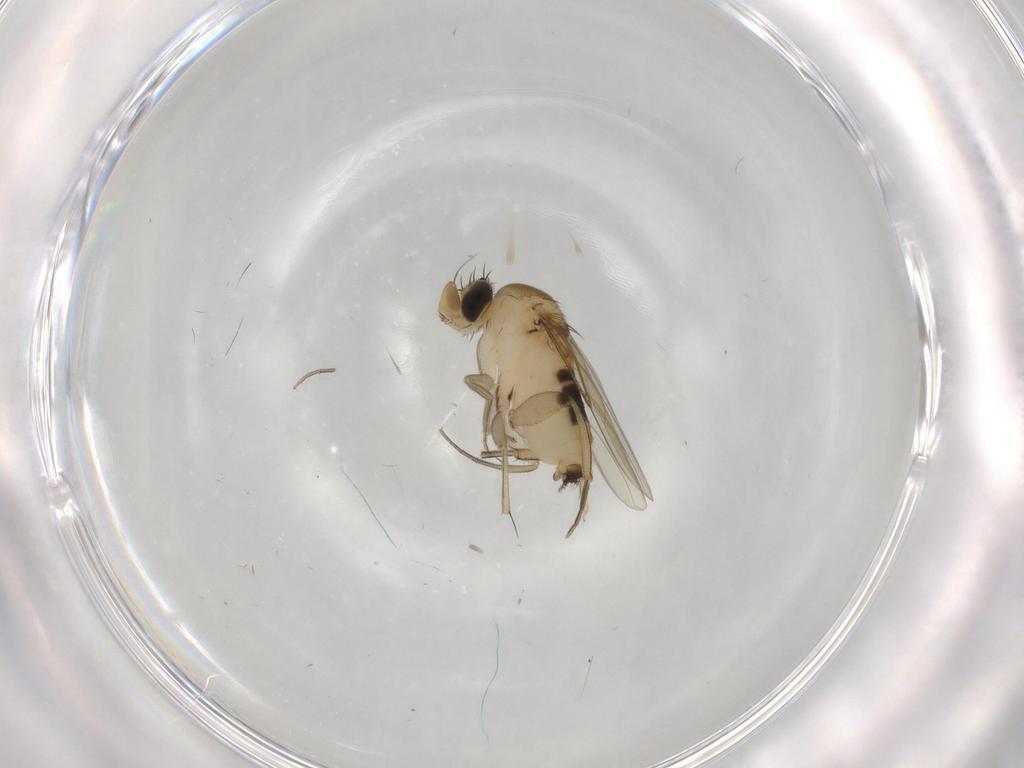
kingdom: Animalia
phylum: Arthropoda
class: Insecta
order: Diptera
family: Phoridae
